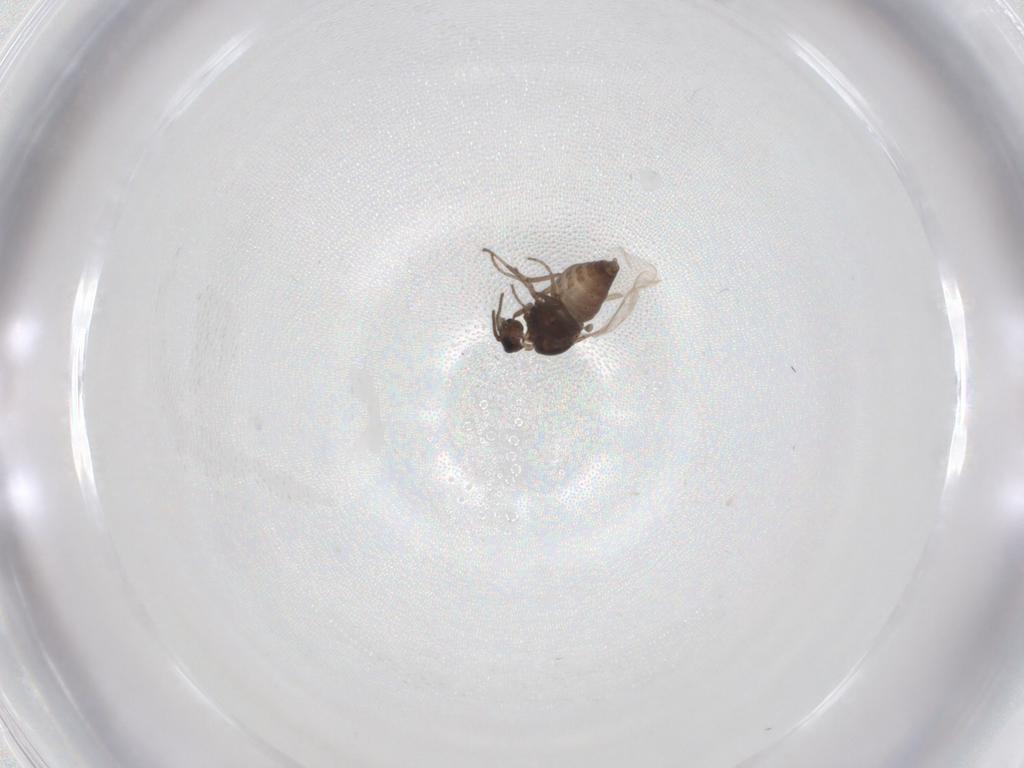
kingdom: Animalia
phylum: Arthropoda
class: Insecta
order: Diptera
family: Ceratopogonidae
